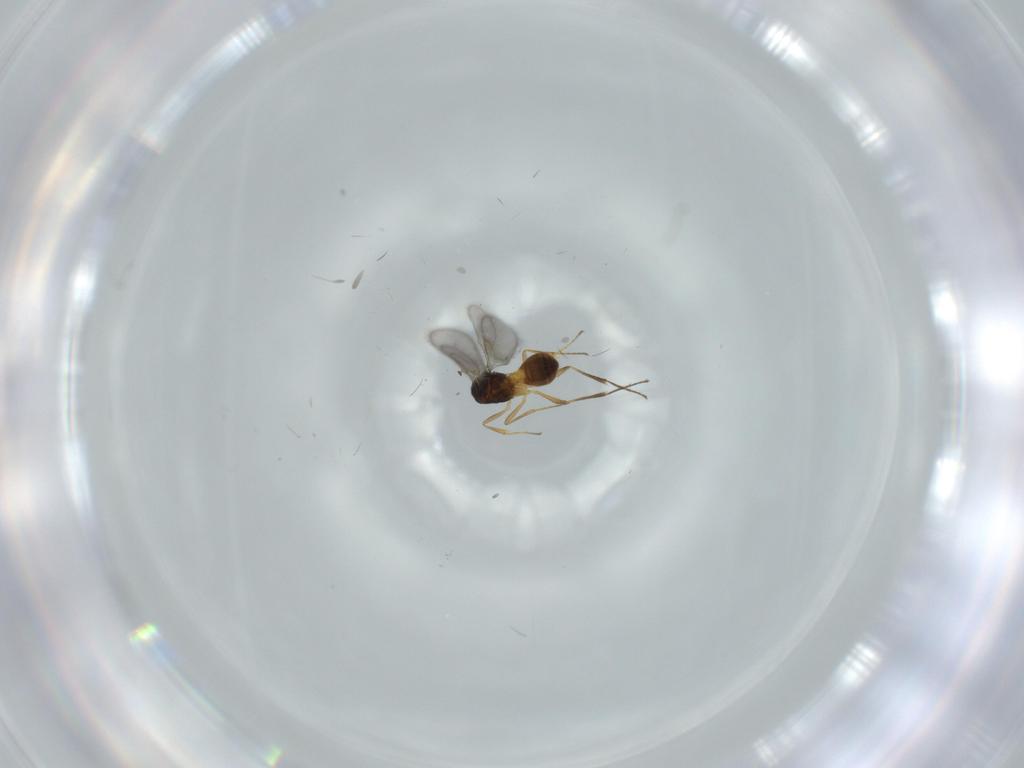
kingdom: Animalia
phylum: Arthropoda
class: Insecta
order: Hymenoptera
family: Scelionidae
